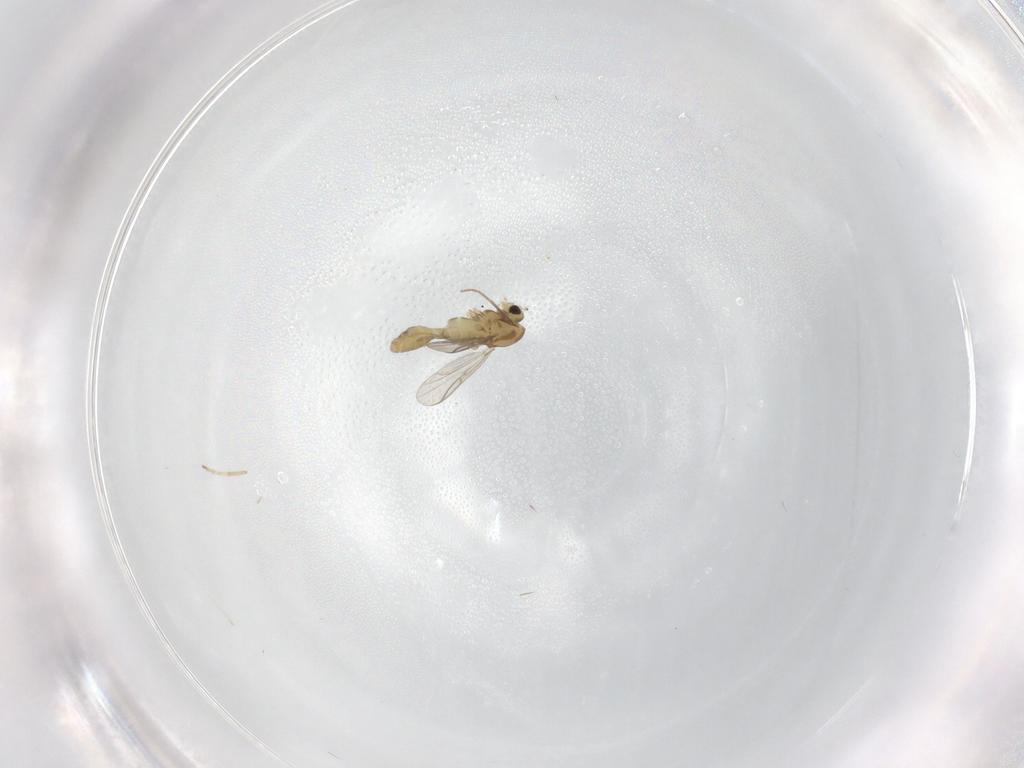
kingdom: Animalia
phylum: Arthropoda
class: Insecta
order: Diptera
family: Chironomidae
